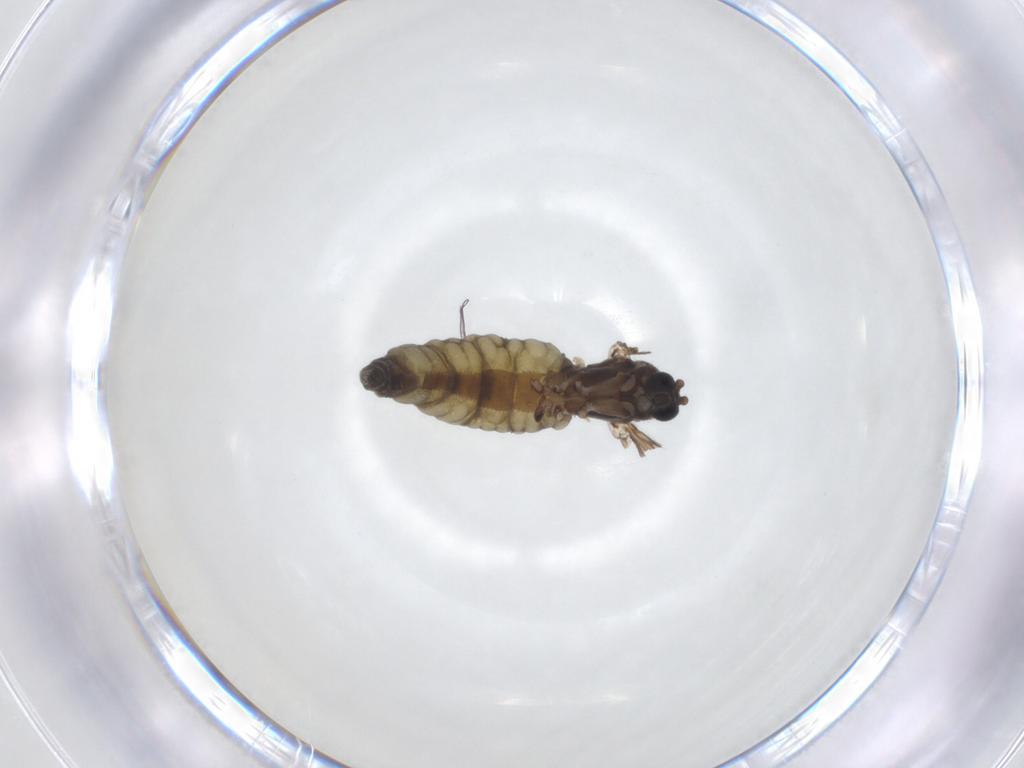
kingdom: Animalia
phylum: Arthropoda
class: Insecta
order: Diptera
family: Sciaridae
